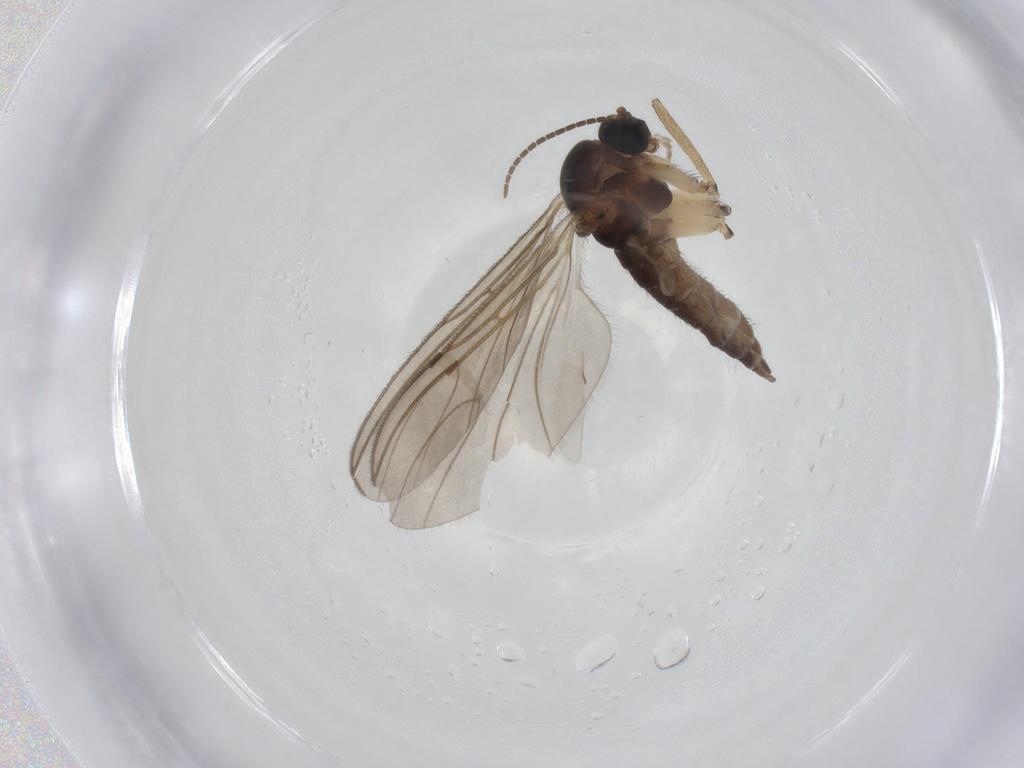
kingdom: Animalia
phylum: Arthropoda
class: Insecta
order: Diptera
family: Sciaridae
